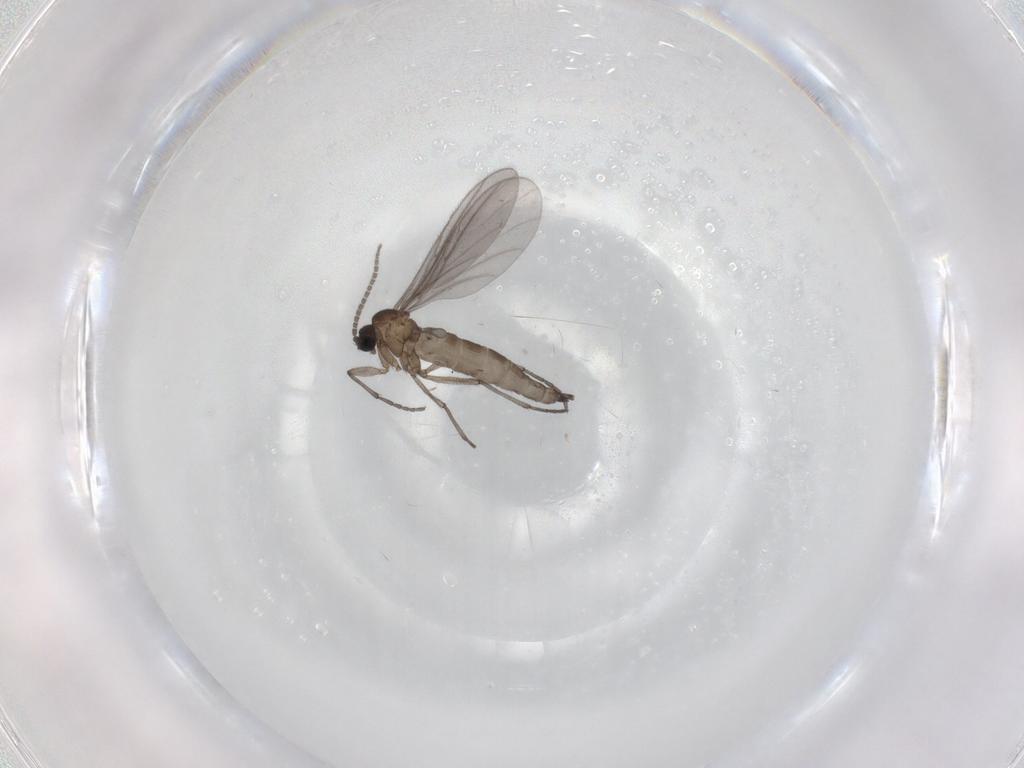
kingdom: Animalia
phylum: Arthropoda
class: Insecta
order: Diptera
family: Sciaridae
